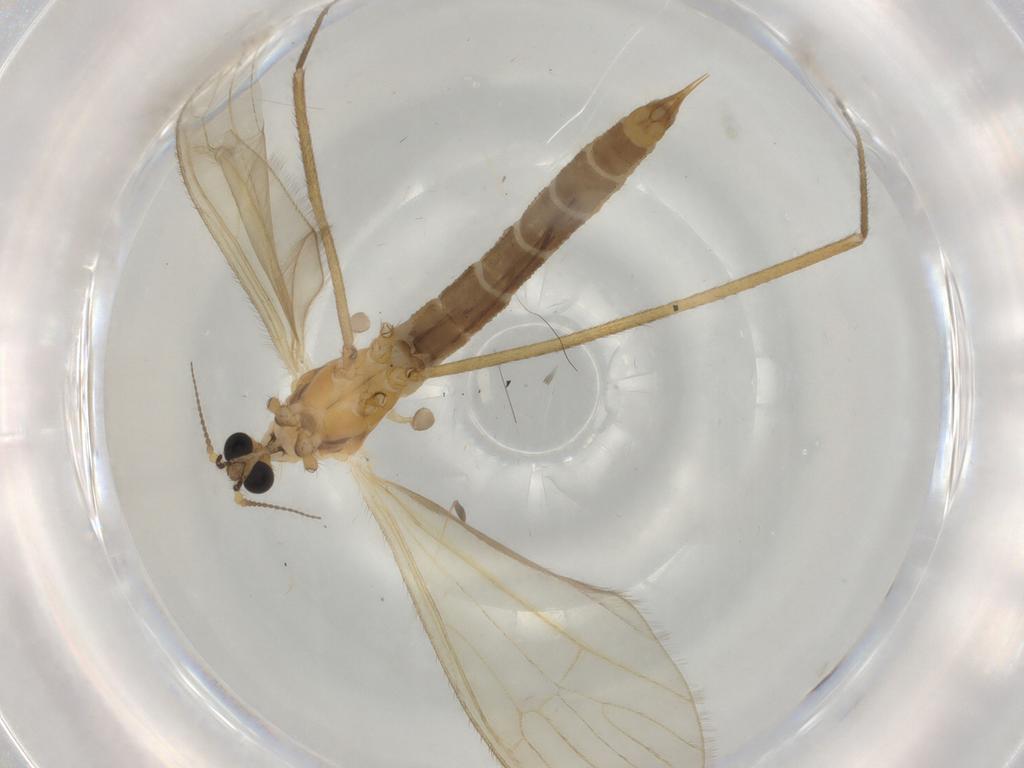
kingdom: Animalia
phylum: Arthropoda
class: Insecta
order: Diptera
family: Limoniidae
